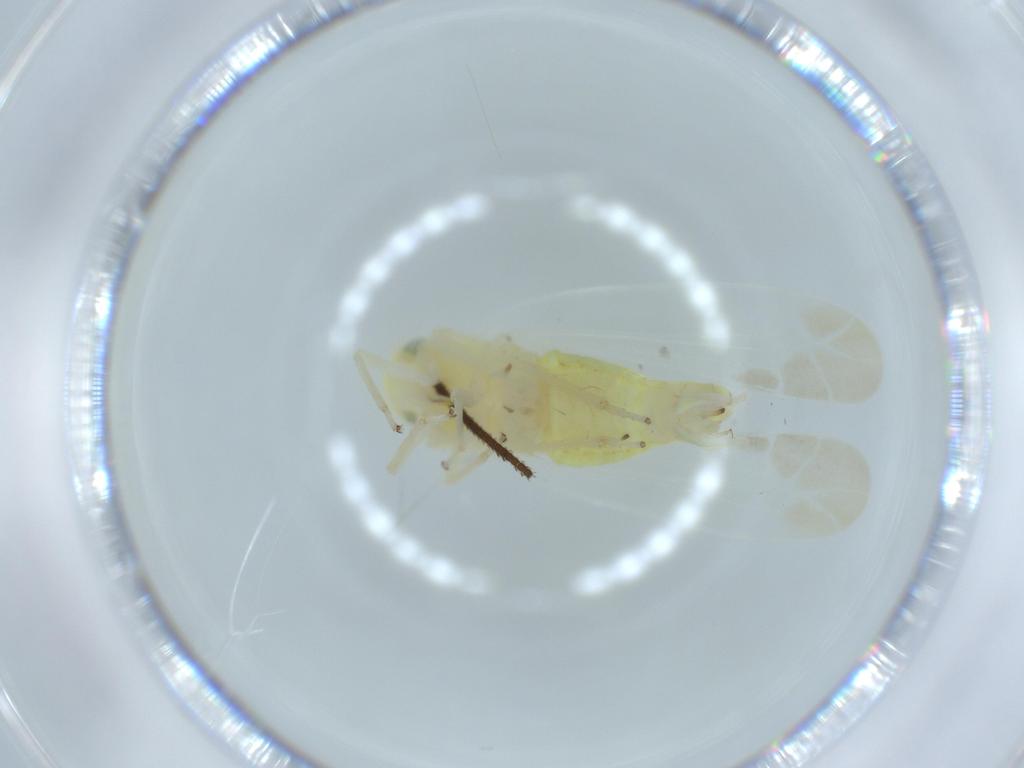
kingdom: Animalia
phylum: Arthropoda
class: Insecta
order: Hemiptera
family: Cicadellidae
